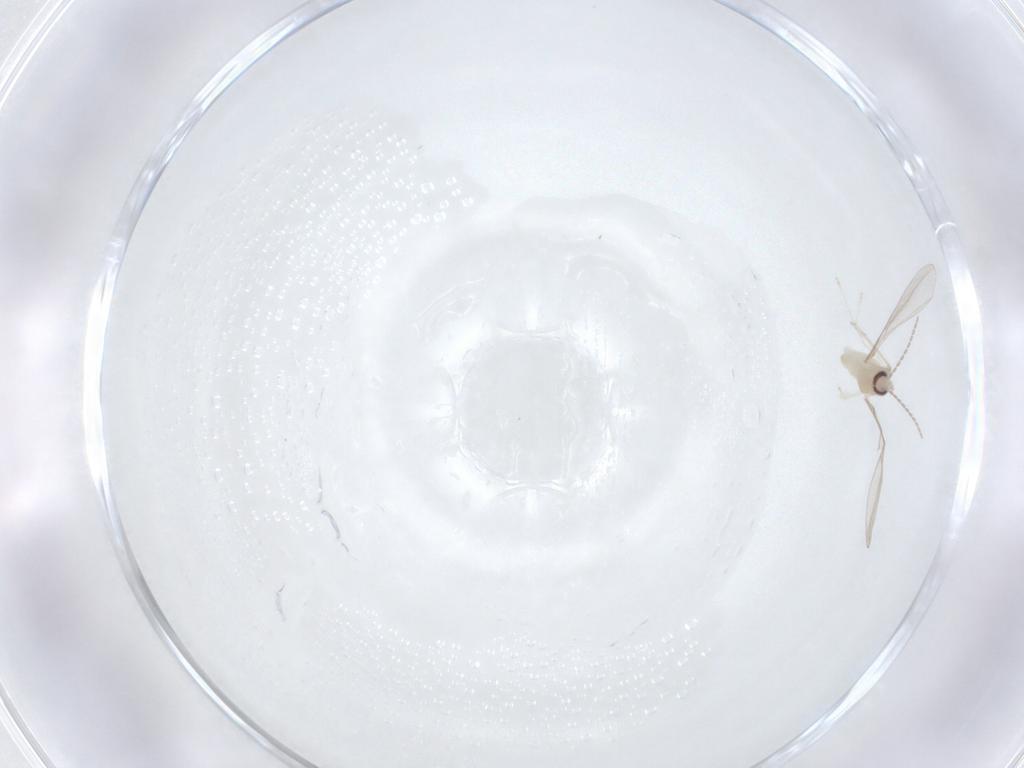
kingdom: Animalia
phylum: Arthropoda
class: Insecta
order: Diptera
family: Cecidomyiidae
